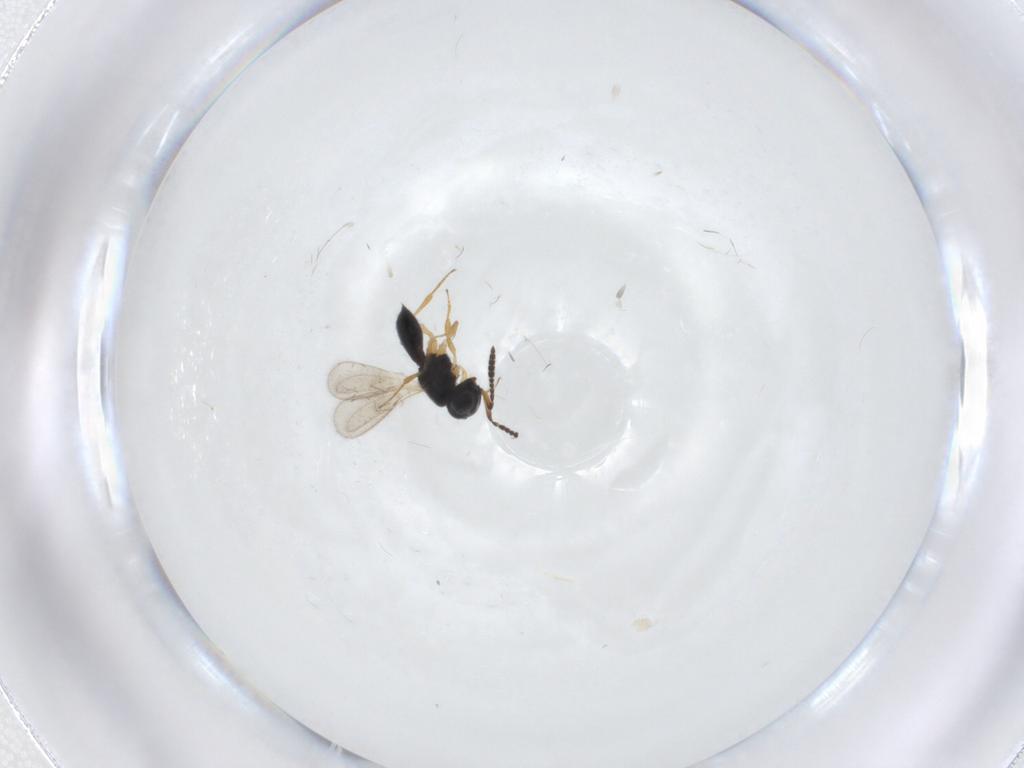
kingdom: Animalia
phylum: Arthropoda
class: Insecta
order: Hymenoptera
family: Scelionidae
